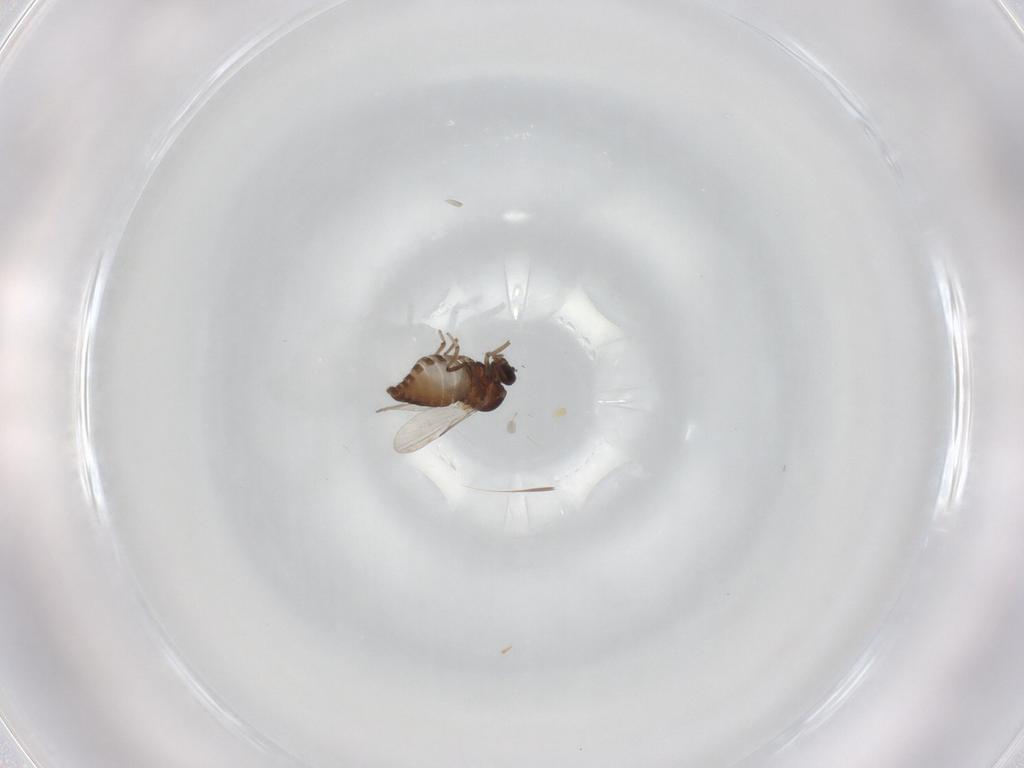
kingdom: Animalia
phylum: Arthropoda
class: Insecta
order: Diptera
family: Ceratopogonidae
